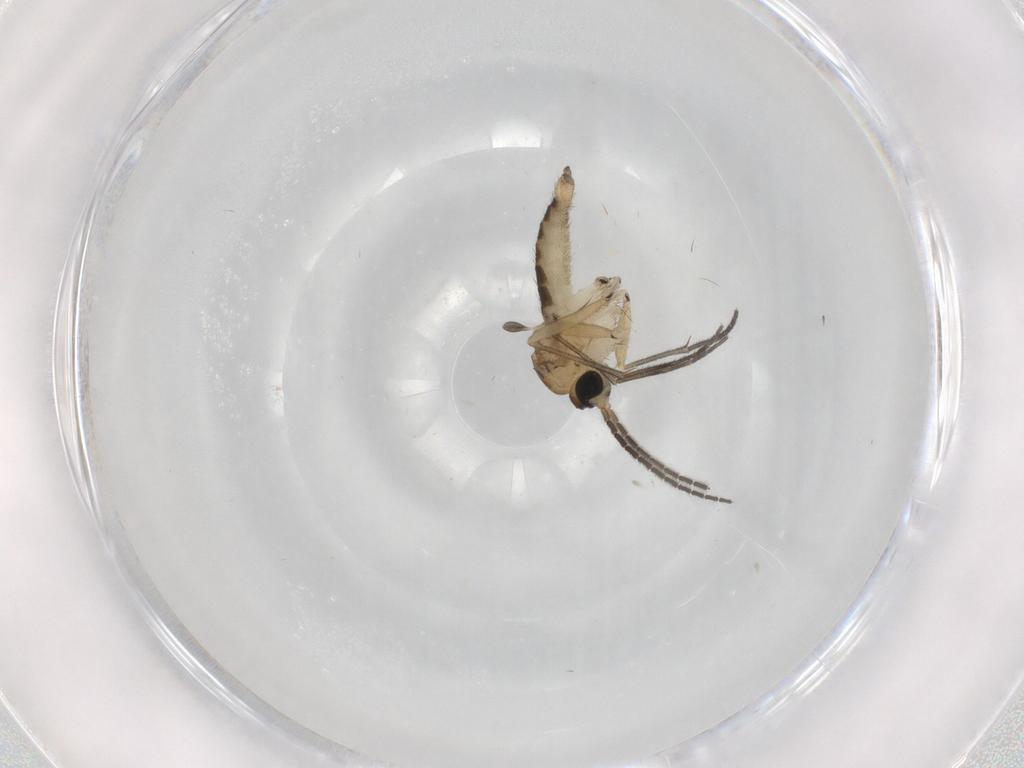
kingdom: Animalia
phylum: Arthropoda
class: Insecta
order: Diptera
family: Sciaridae
